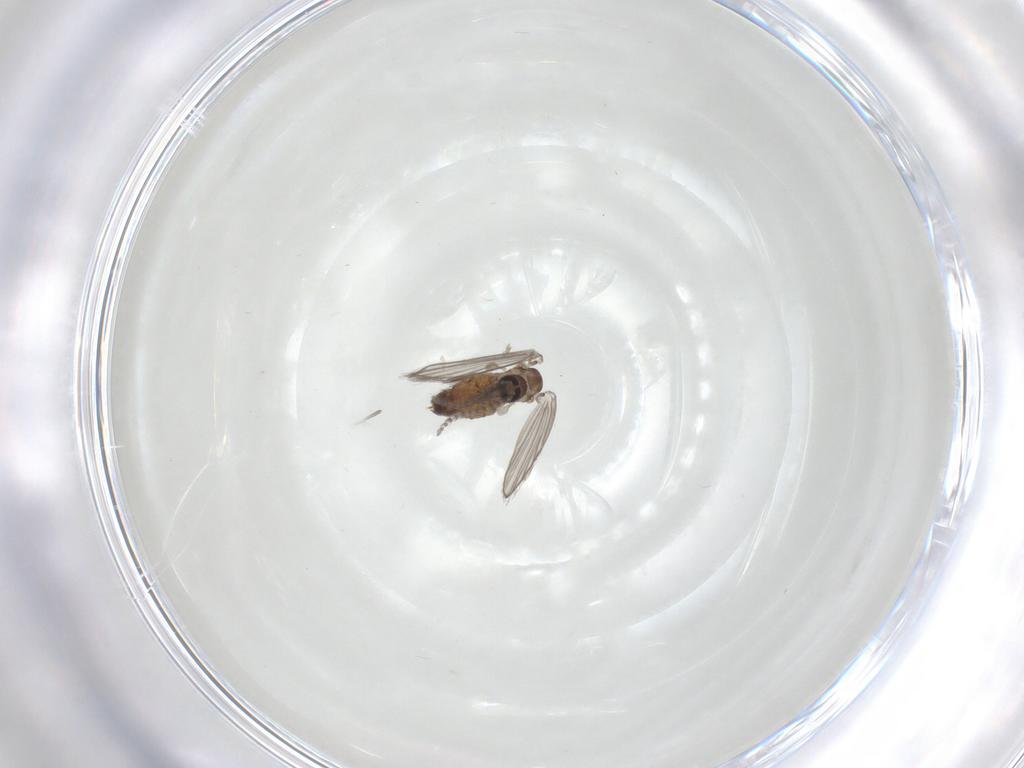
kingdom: Animalia
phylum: Arthropoda
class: Insecta
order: Diptera
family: Psychodidae
